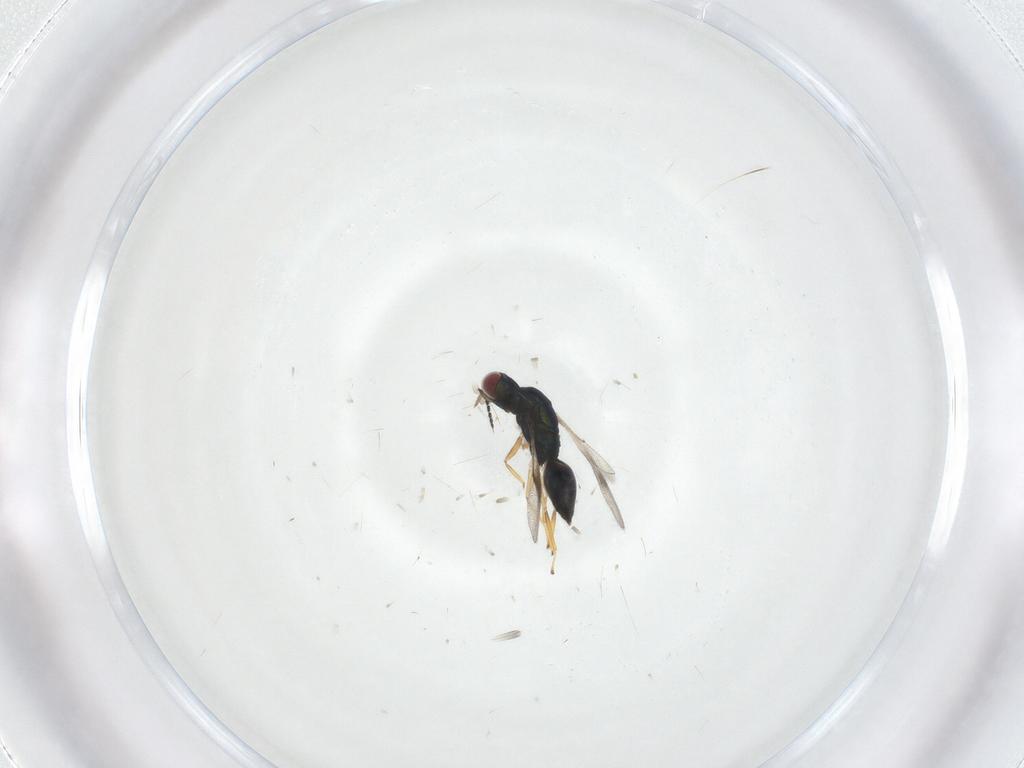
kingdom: Animalia
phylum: Arthropoda
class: Insecta
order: Hymenoptera
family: Eulophidae
